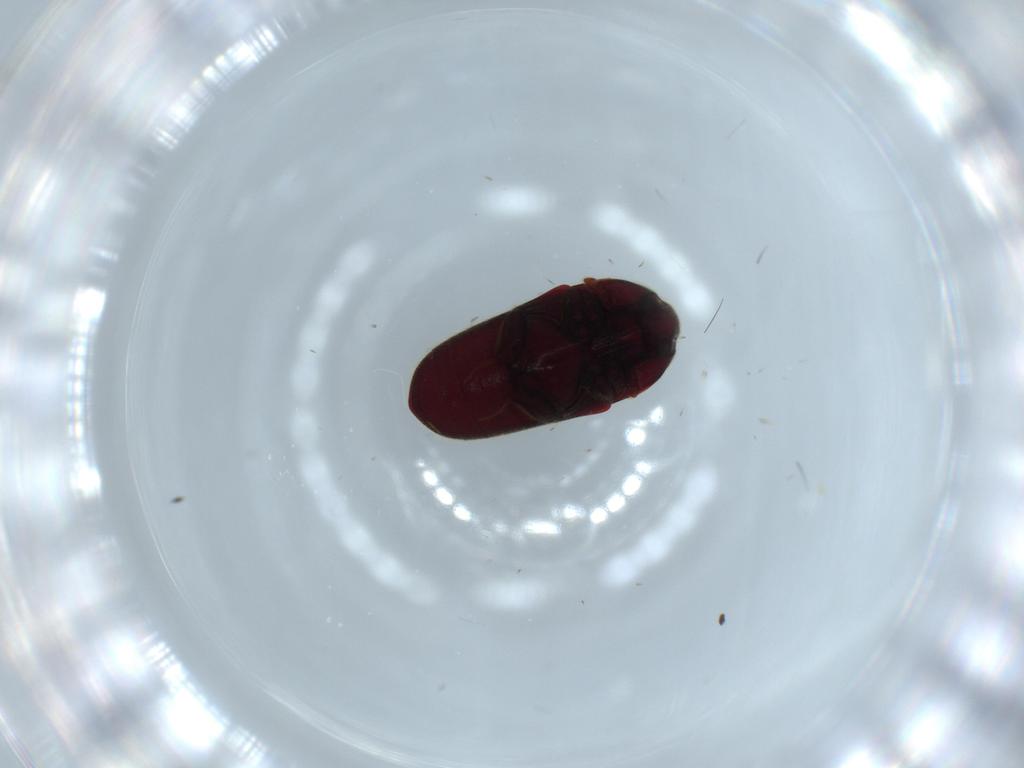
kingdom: Animalia
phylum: Arthropoda
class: Insecta
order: Coleoptera
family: Throscidae
